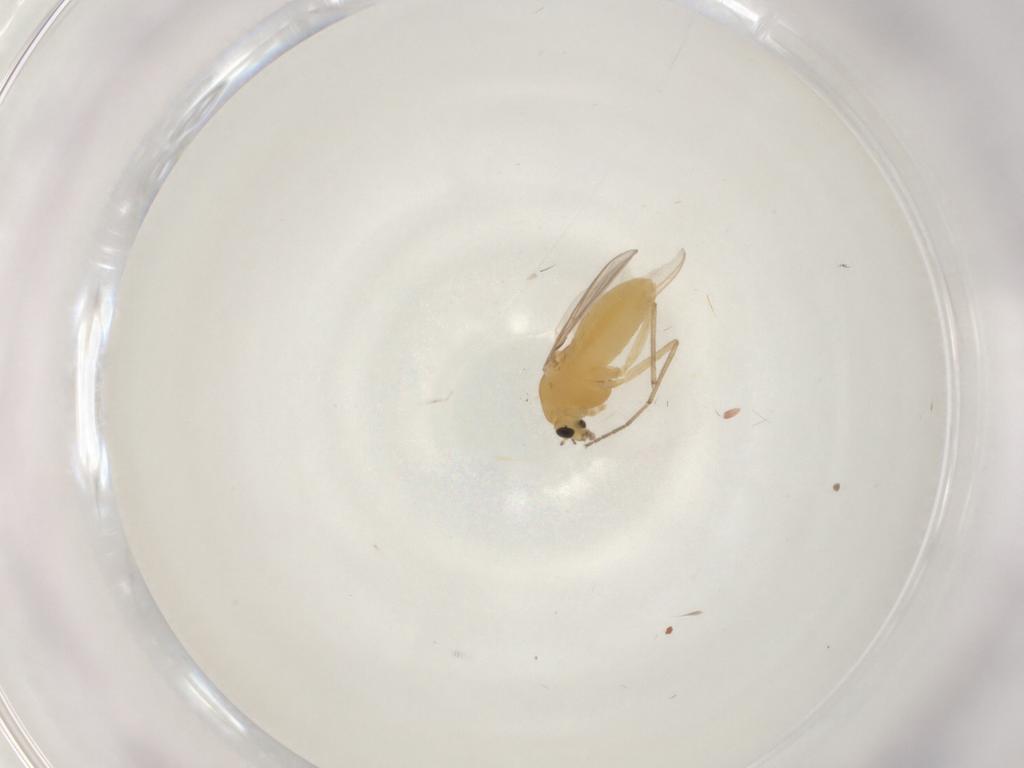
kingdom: Animalia
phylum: Arthropoda
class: Insecta
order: Diptera
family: Chironomidae
